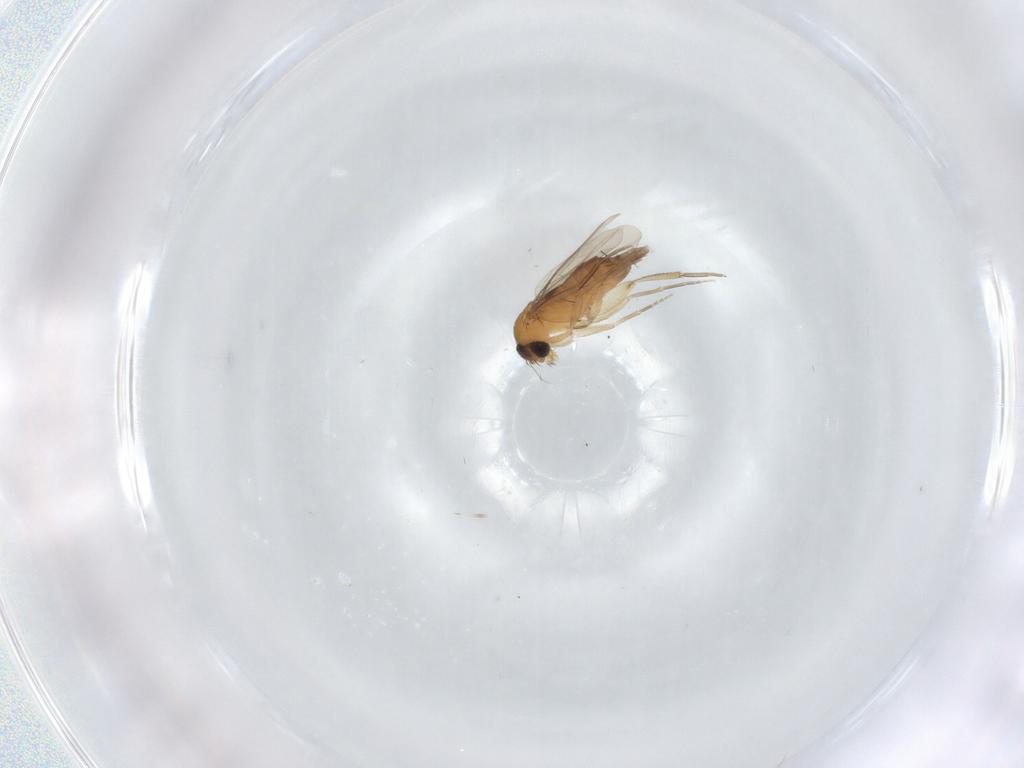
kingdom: Animalia
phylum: Arthropoda
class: Insecta
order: Diptera
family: Phoridae
